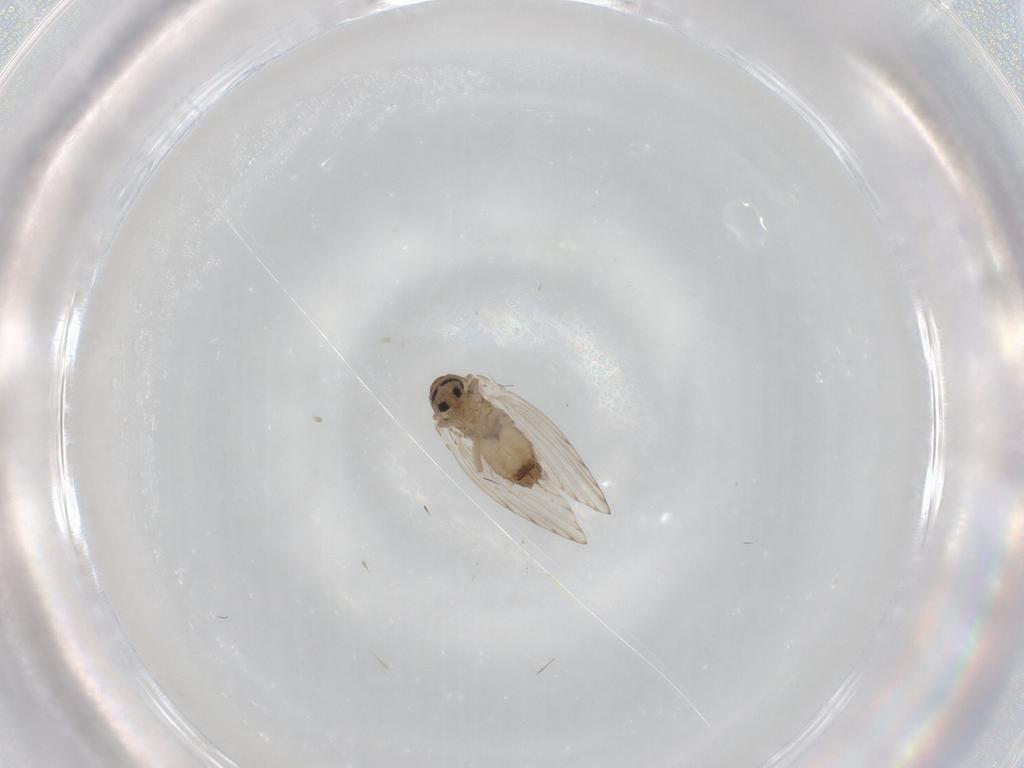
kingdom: Animalia
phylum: Arthropoda
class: Insecta
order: Diptera
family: Psychodidae
